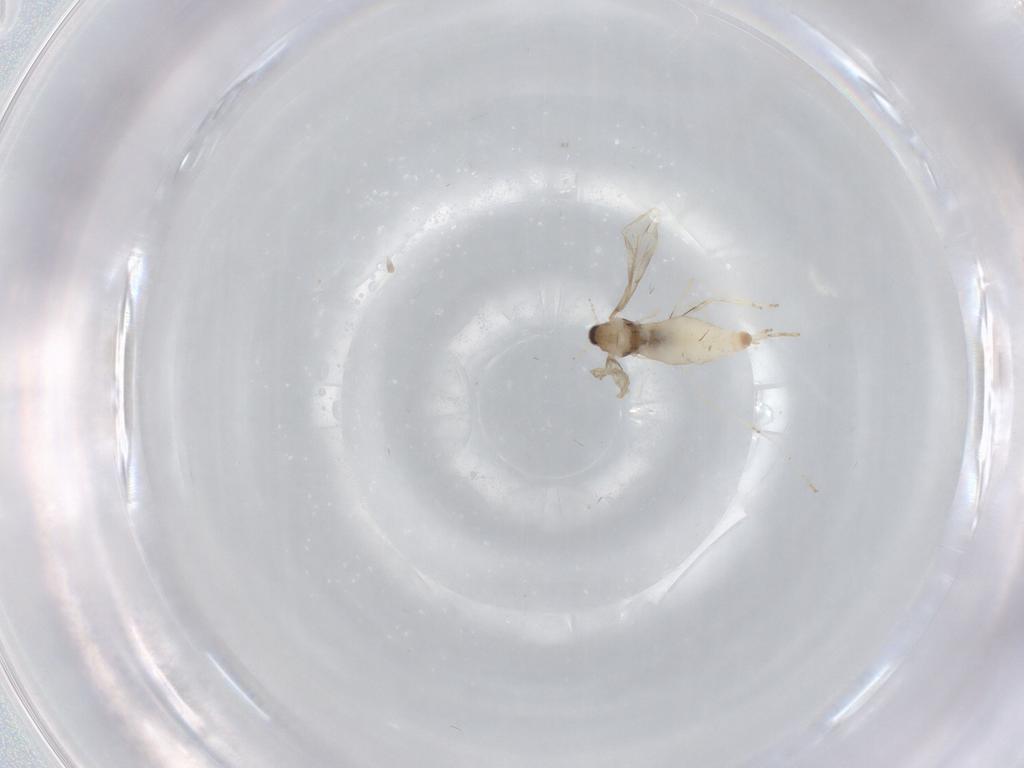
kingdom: Animalia
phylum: Arthropoda
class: Insecta
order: Diptera
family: Cecidomyiidae
